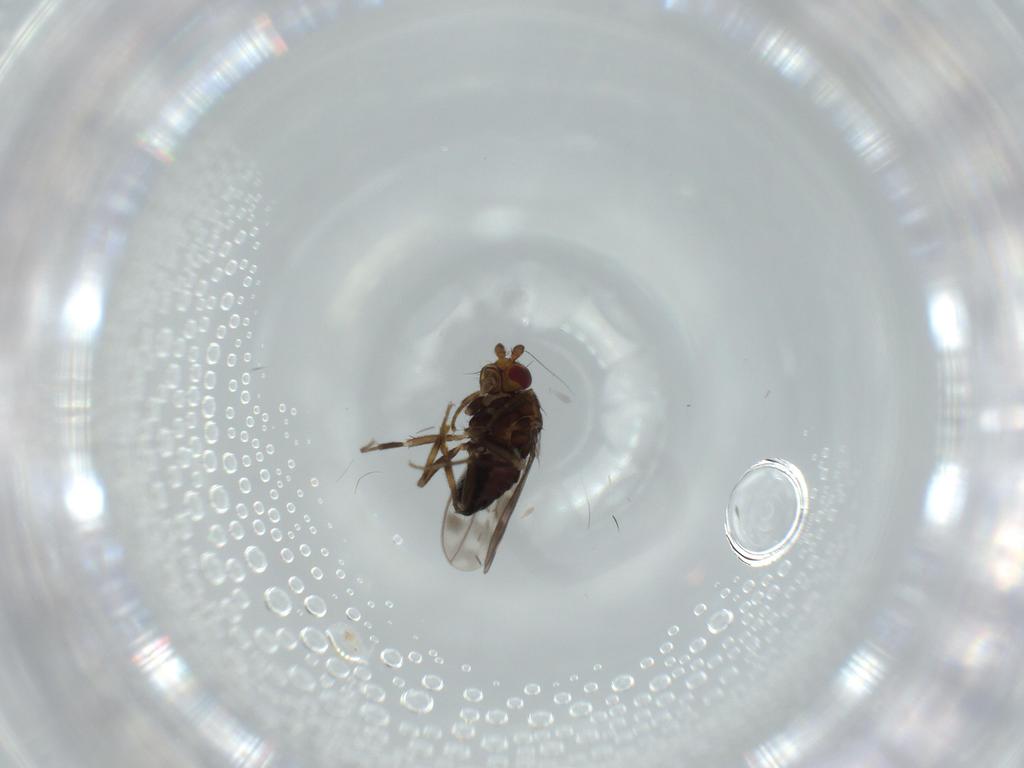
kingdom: Animalia
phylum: Arthropoda
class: Insecta
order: Diptera
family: Sphaeroceridae
